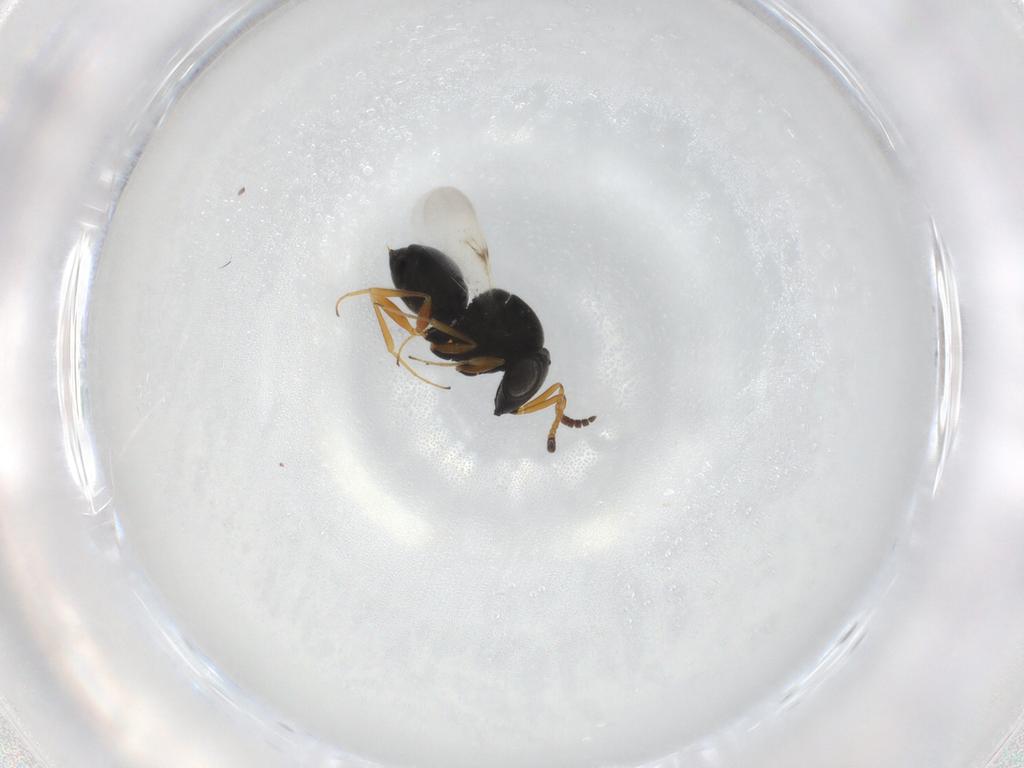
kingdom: Animalia
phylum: Arthropoda
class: Insecta
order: Hymenoptera
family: Scelionidae
